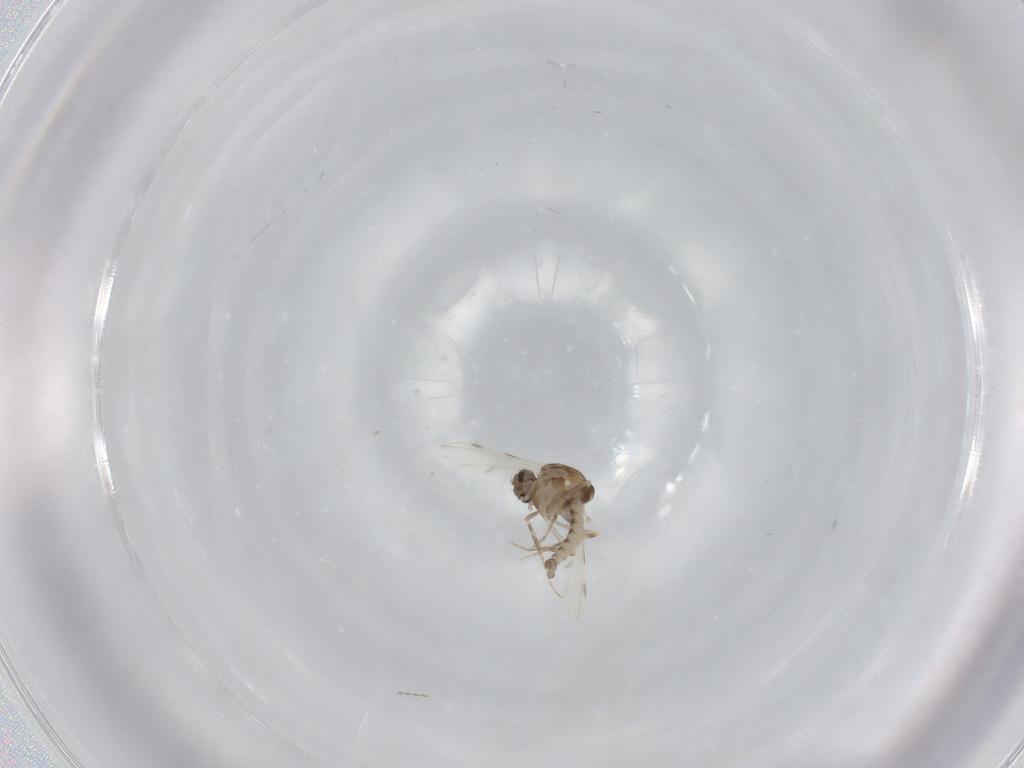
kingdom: Animalia
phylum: Arthropoda
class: Insecta
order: Diptera
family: Ceratopogonidae
